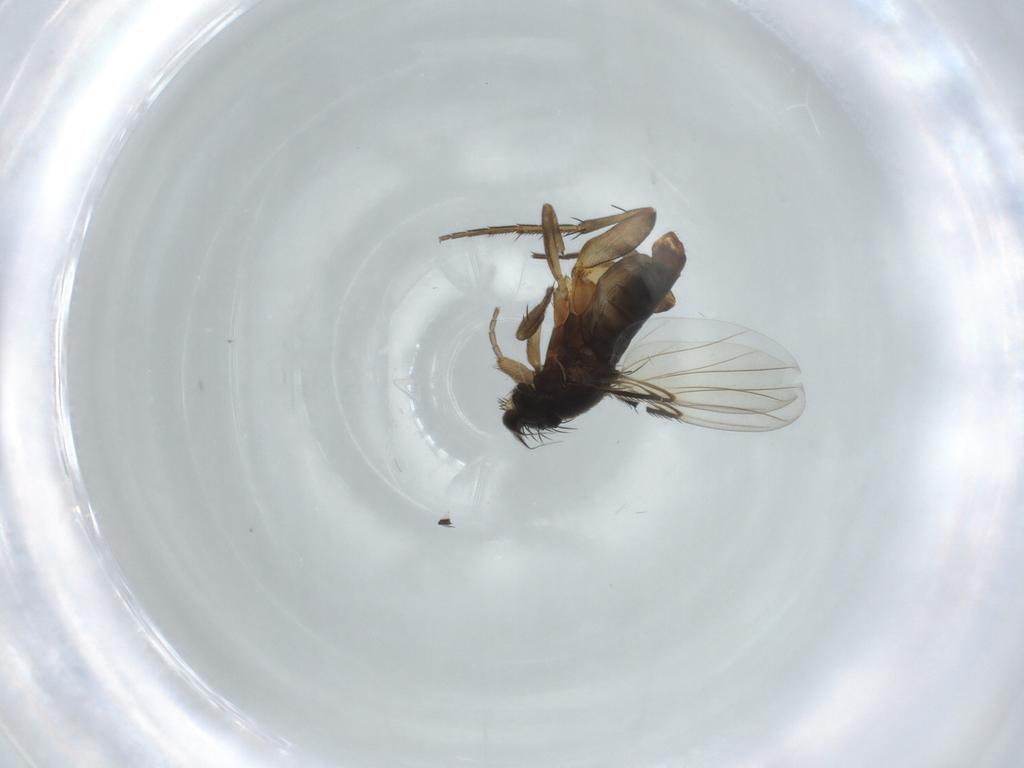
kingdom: Animalia
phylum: Arthropoda
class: Insecta
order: Diptera
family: Phoridae
